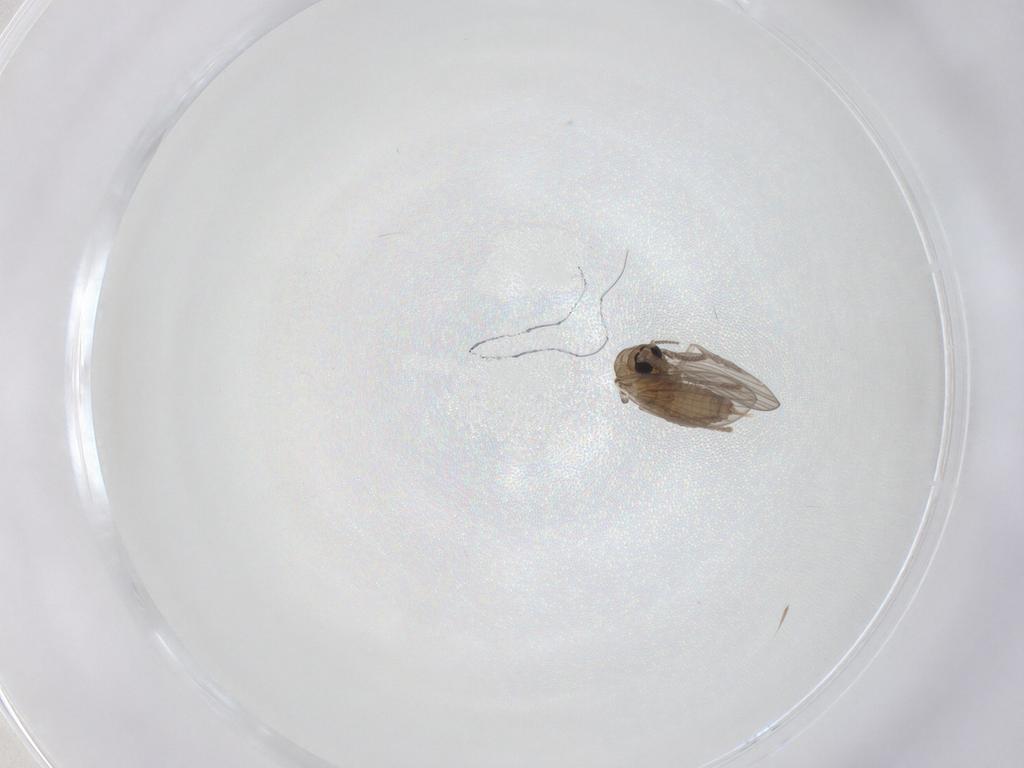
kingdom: Animalia
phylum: Arthropoda
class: Insecta
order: Diptera
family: Psychodidae
